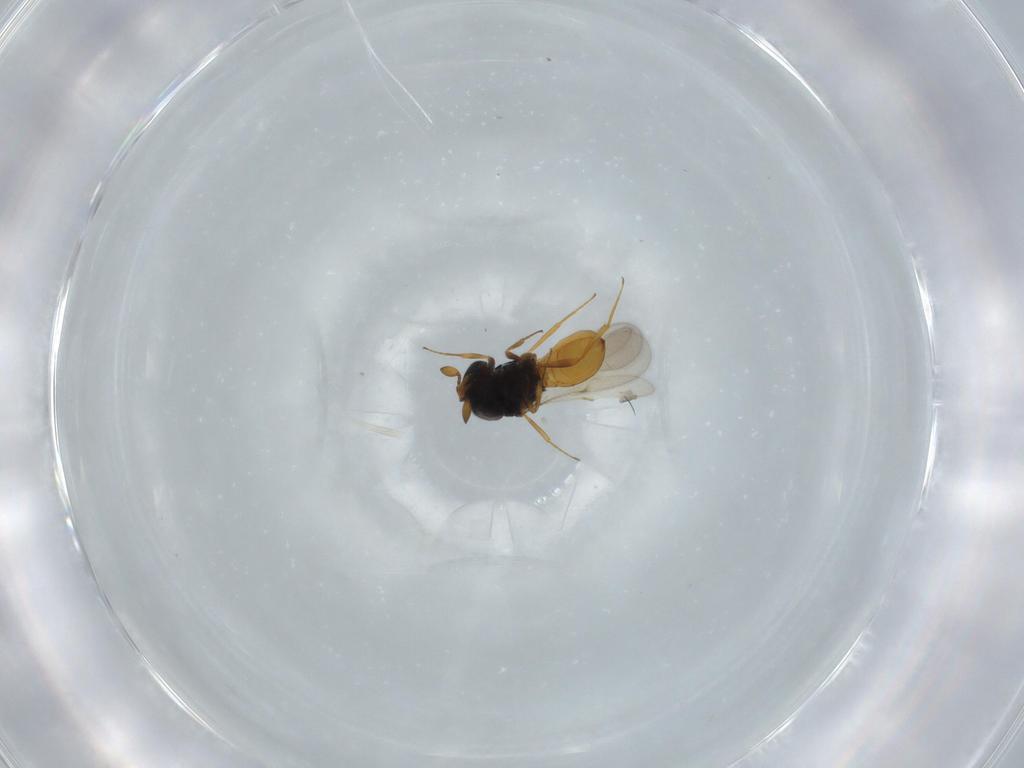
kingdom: Animalia
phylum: Arthropoda
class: Insecta
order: Hymenoptera
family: Scelionidae
